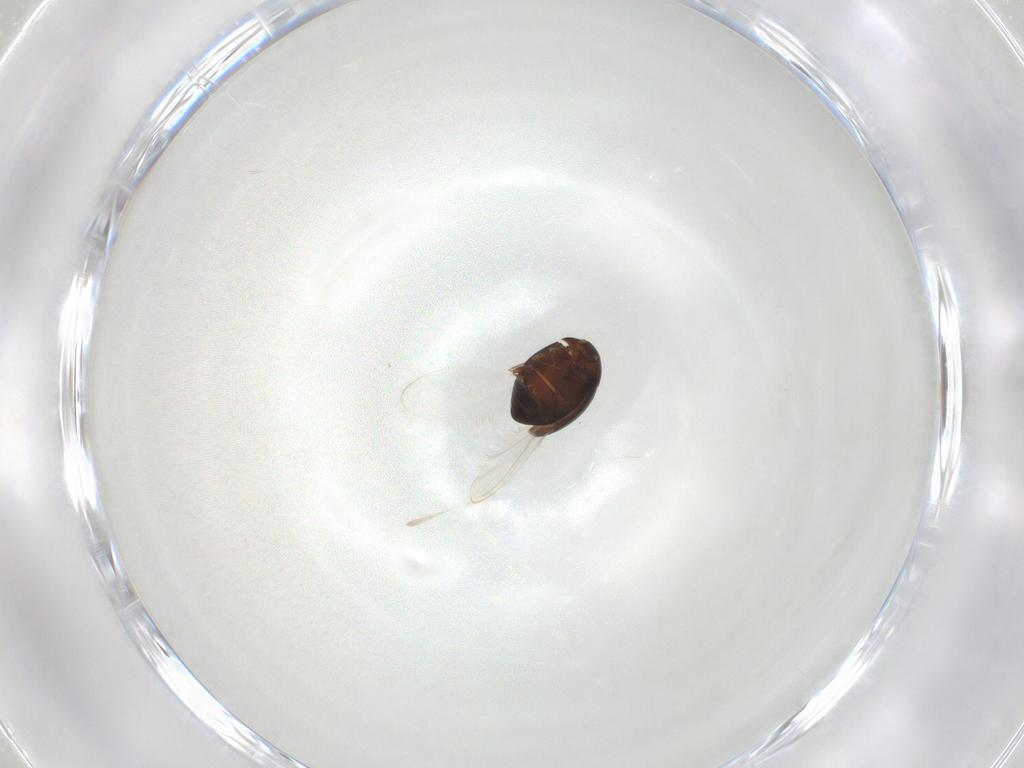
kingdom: Animalia
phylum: Arthropoda
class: Insecta
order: Coleoptera
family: Corylophidae
